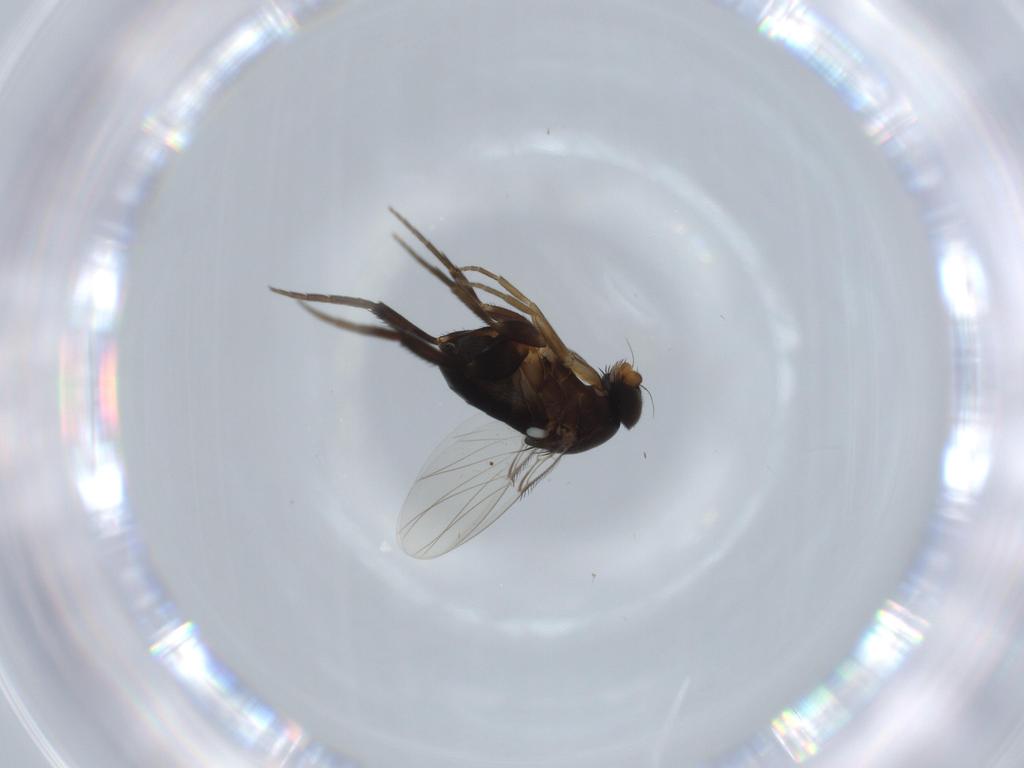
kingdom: Animalia
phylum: Arthropoda
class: Insecta
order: Diptera
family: Phoridae
